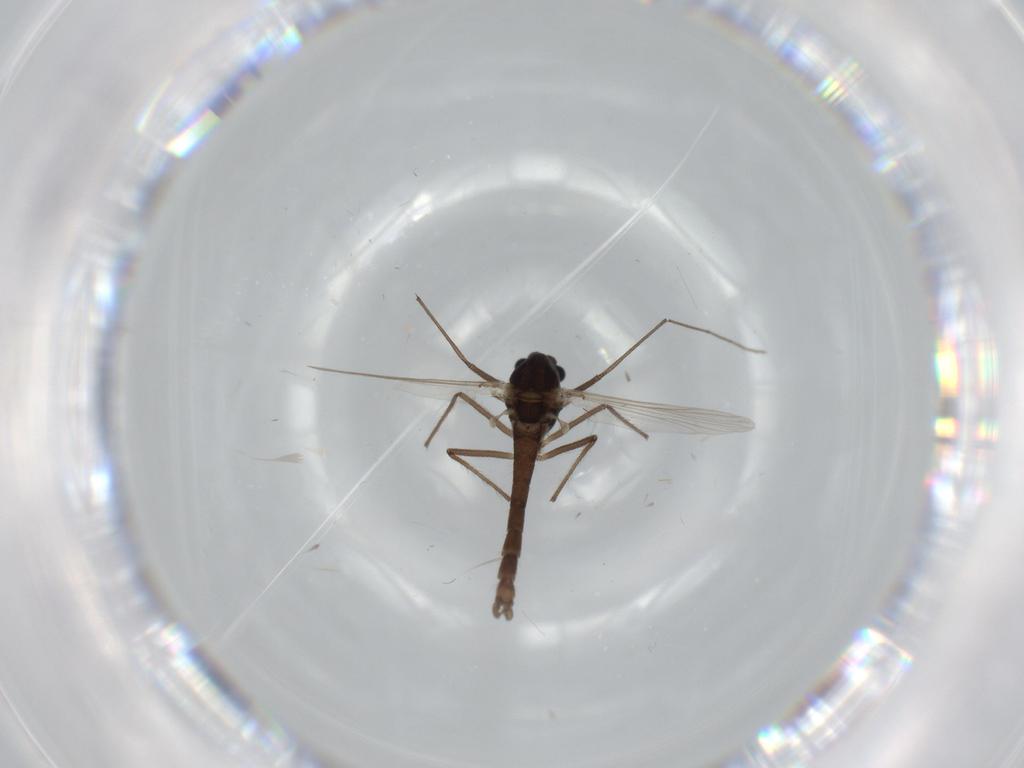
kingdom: Animalia
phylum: Arthropoda
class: Insecta
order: Diptera
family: Cecidomyiidae
